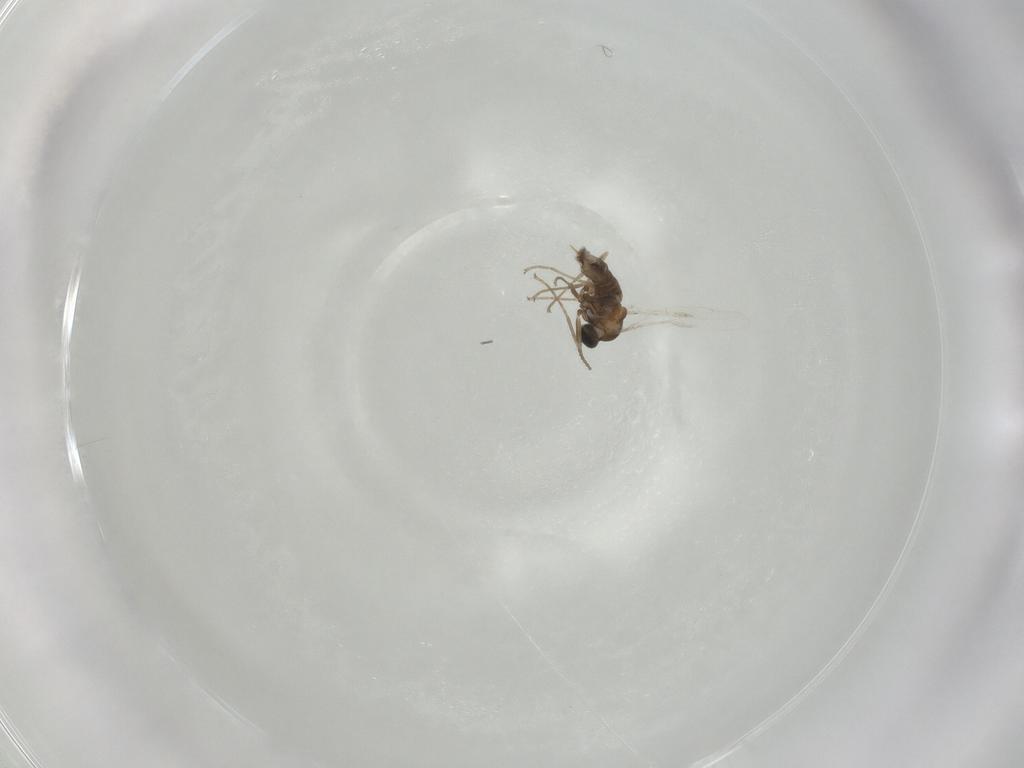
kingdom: Animalia
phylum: Arthropoda
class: Insecta
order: Diptera
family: Cecidomyiidae
